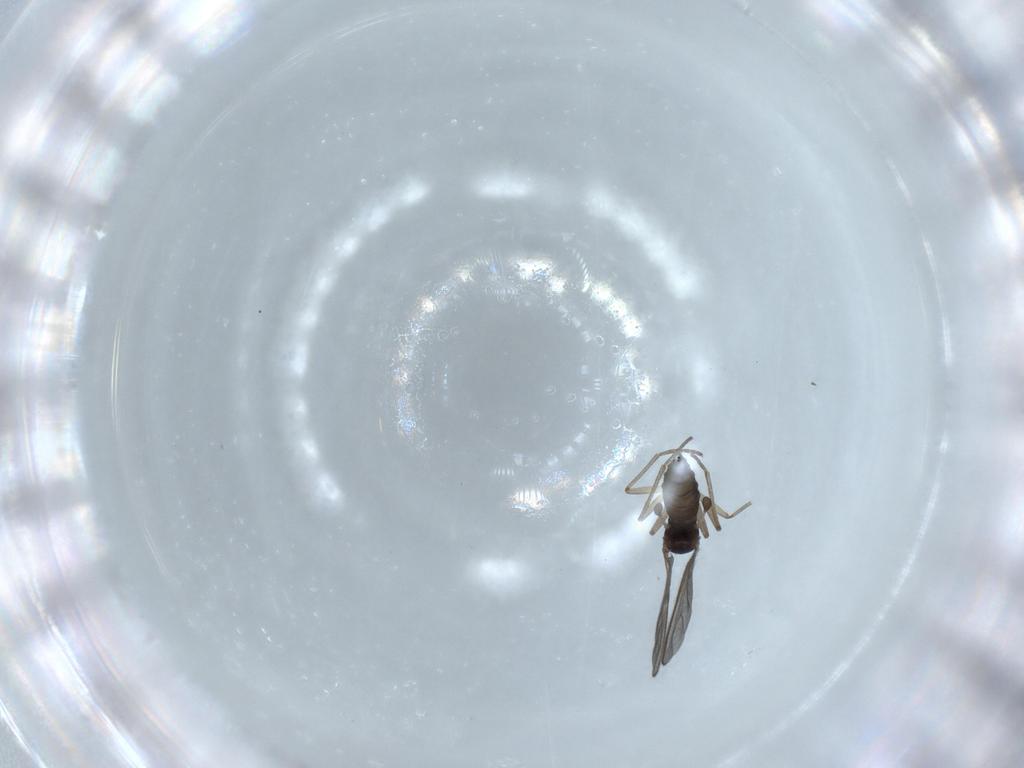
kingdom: Animalia
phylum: Arthropoda
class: Insecta
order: Diptera
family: Sciaridae
